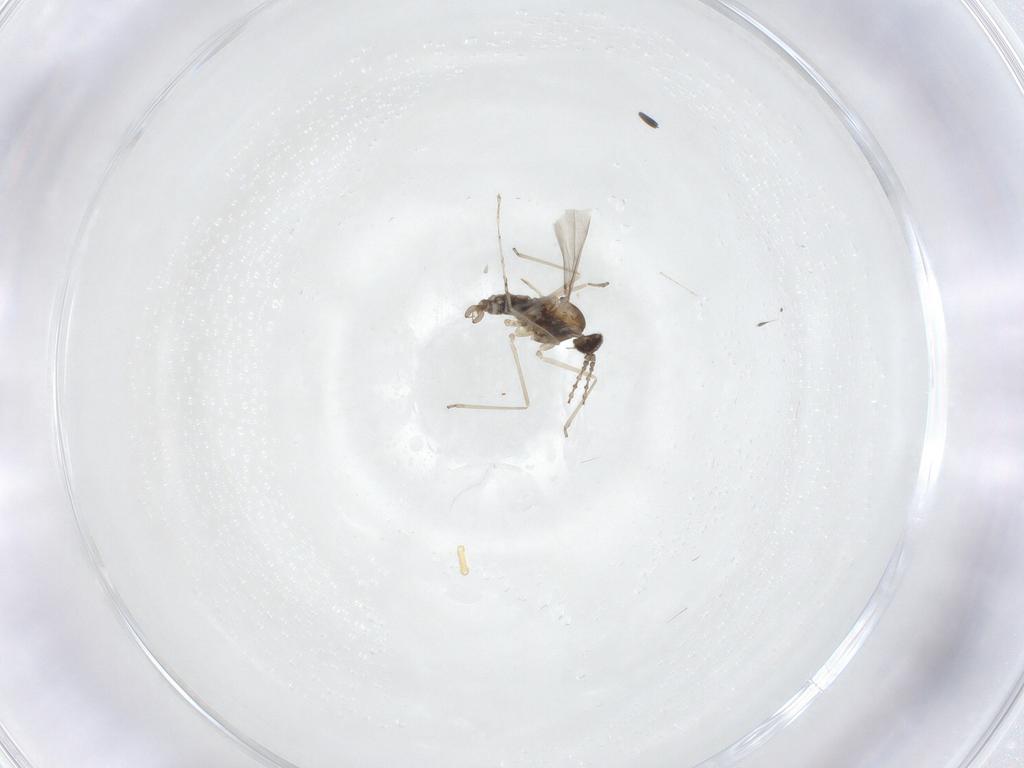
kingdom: Animalia
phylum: Arthropoda
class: Insecta
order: Diptera
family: Cecidomyiidae
